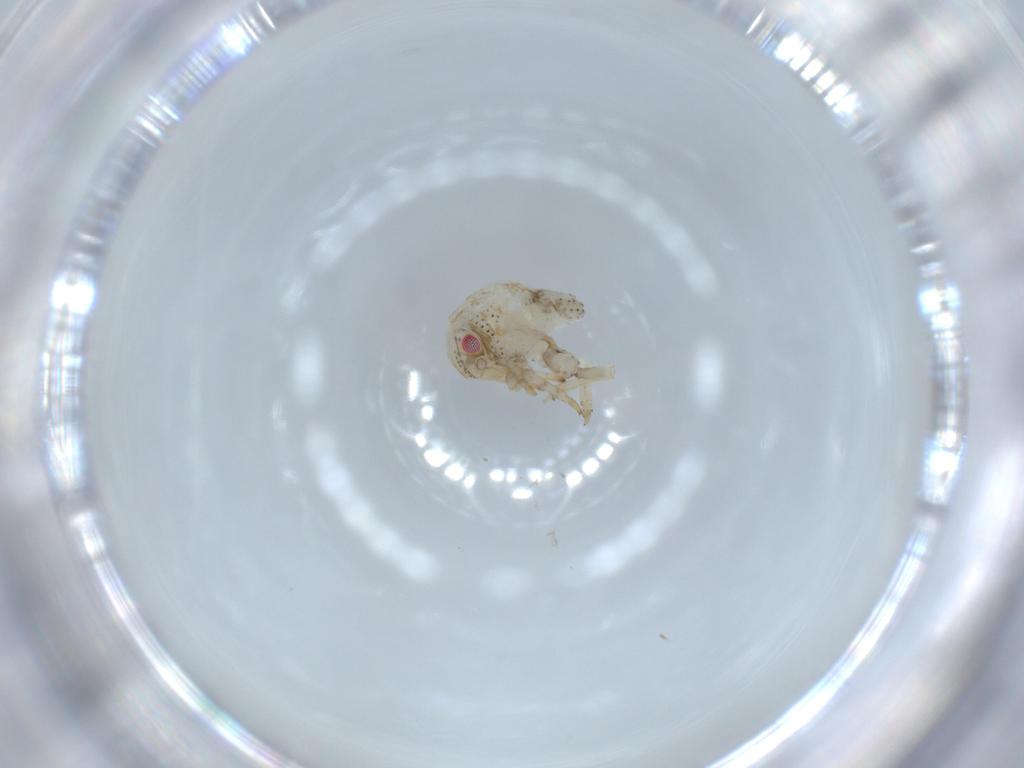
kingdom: Animalia
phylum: Arthropoda
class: Insecta
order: Hemiptera
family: Acanaloniidae
